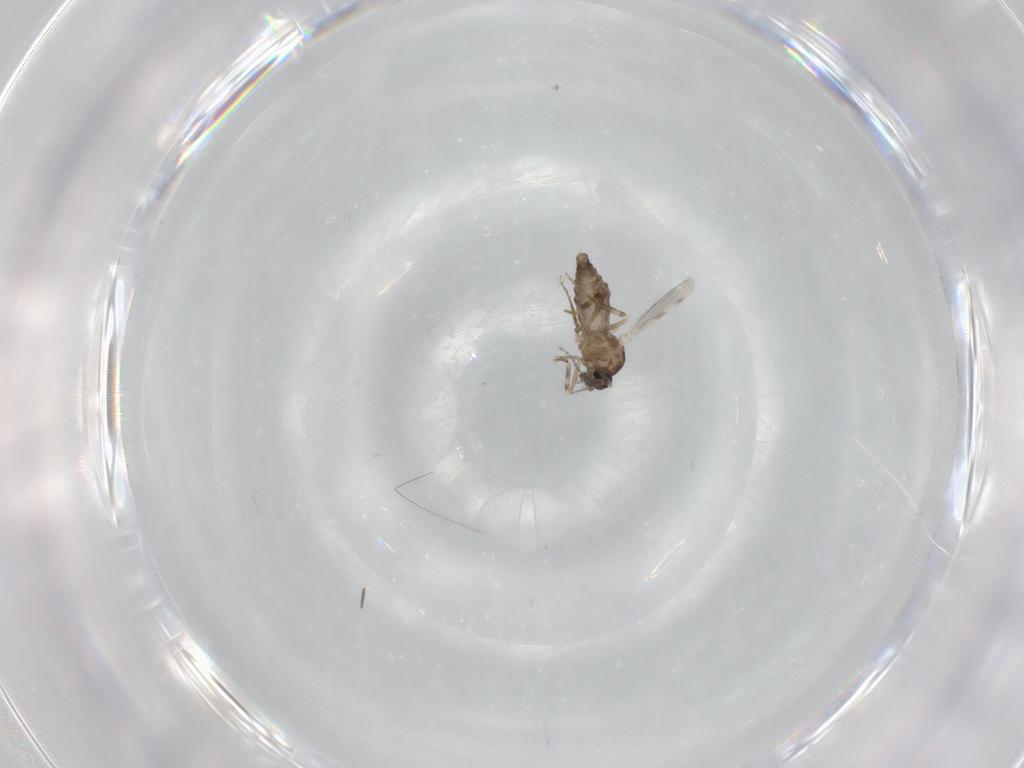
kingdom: Animalia
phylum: Arthropoda
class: Insecta
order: Diptera
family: Ceratopogonidae
